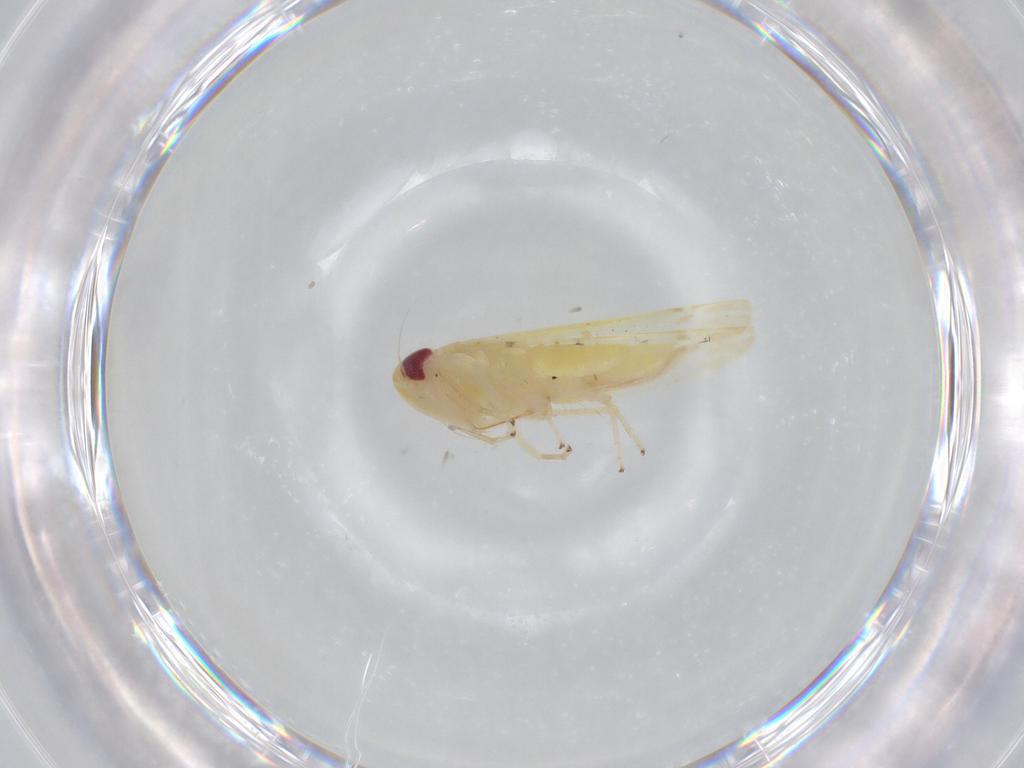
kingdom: Animalia
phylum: Arthropoda
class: Insecta
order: Hemiptera
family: Cicadellidae
